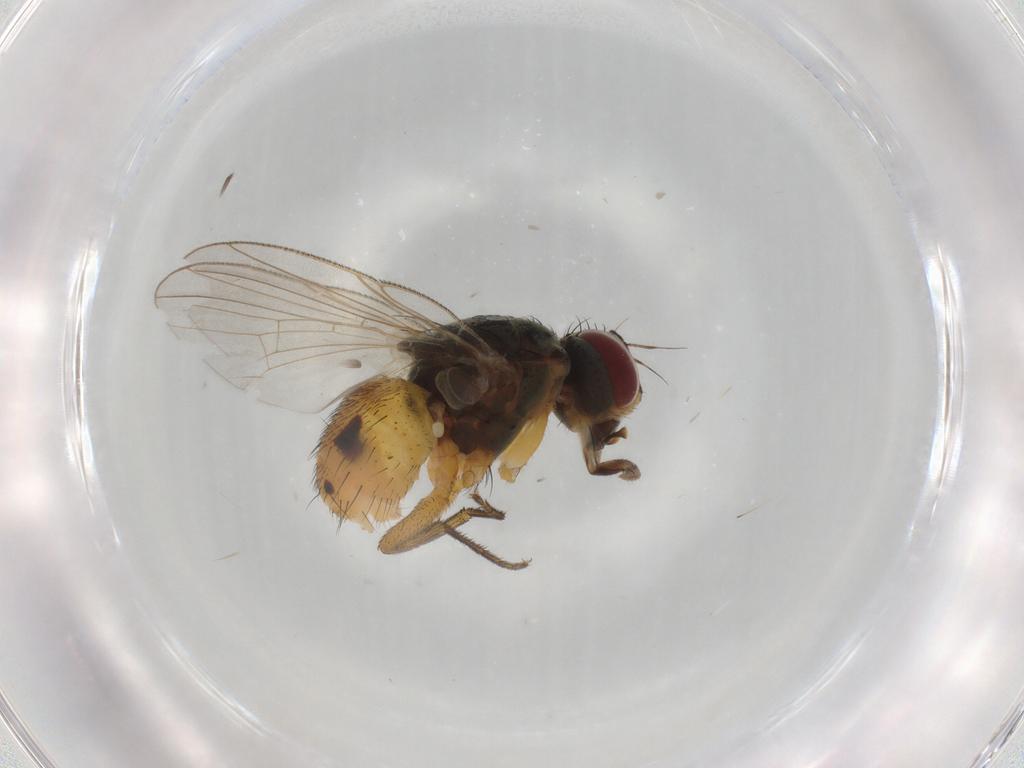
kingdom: Animalia
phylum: Arthropoda
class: Insecta
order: Diptera
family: Muscidae
